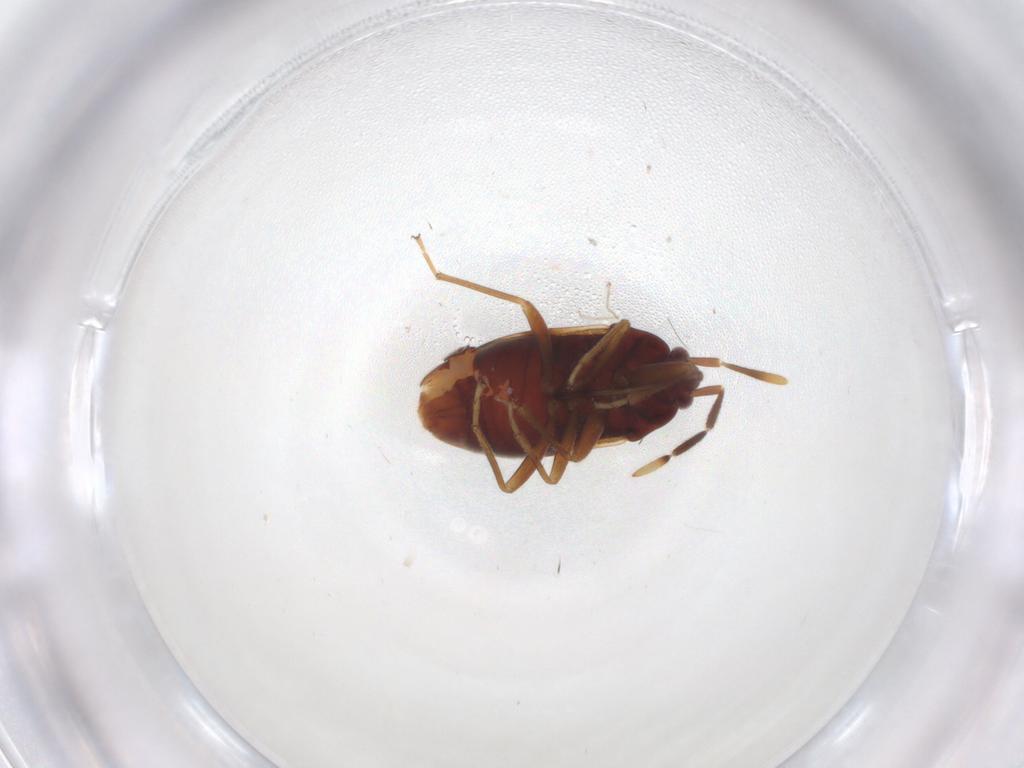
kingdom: Animalia
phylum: Arthropoda
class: Insecta
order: Hemiptera
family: Rhyparochromidae
